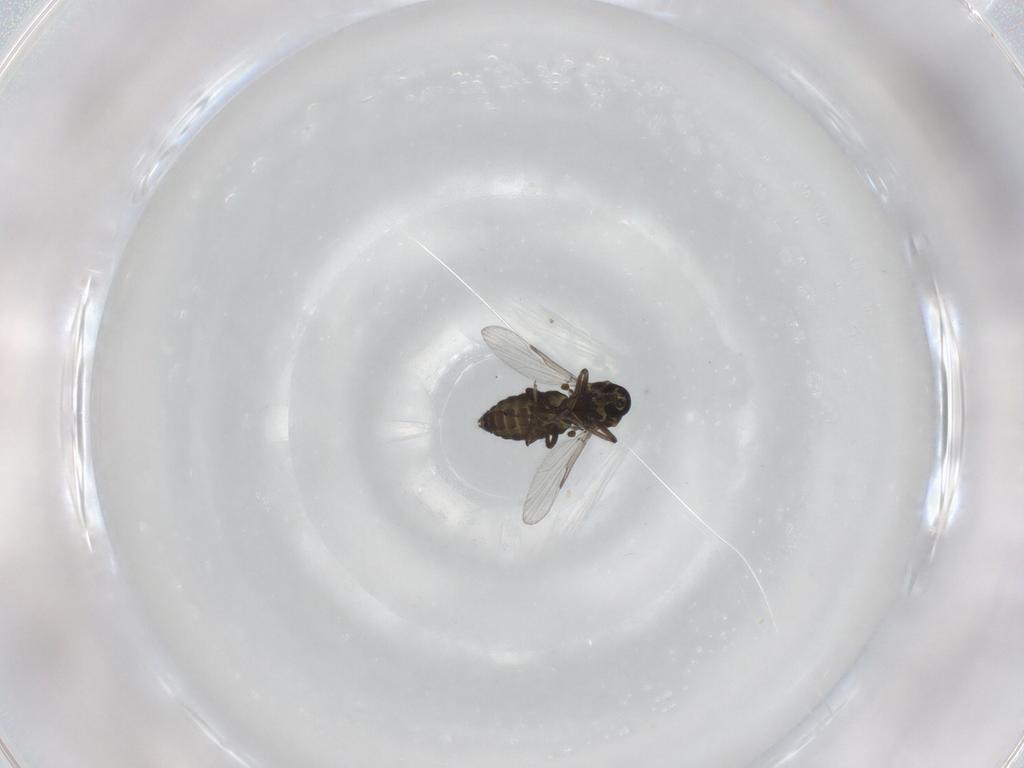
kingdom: Animalia
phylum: Arthropoda
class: Insecta
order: Diptera
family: Ceratopogonidae
